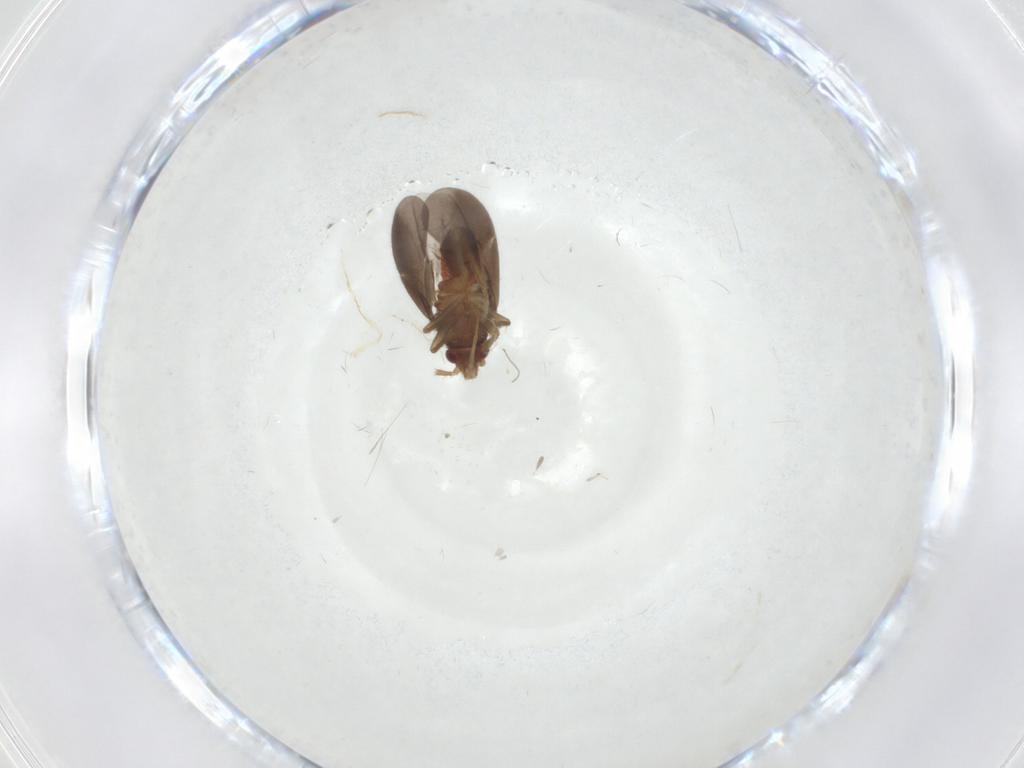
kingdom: Animalia
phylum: Arthropoda
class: Insecta
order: Hemiptera
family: Ceratocombidae
